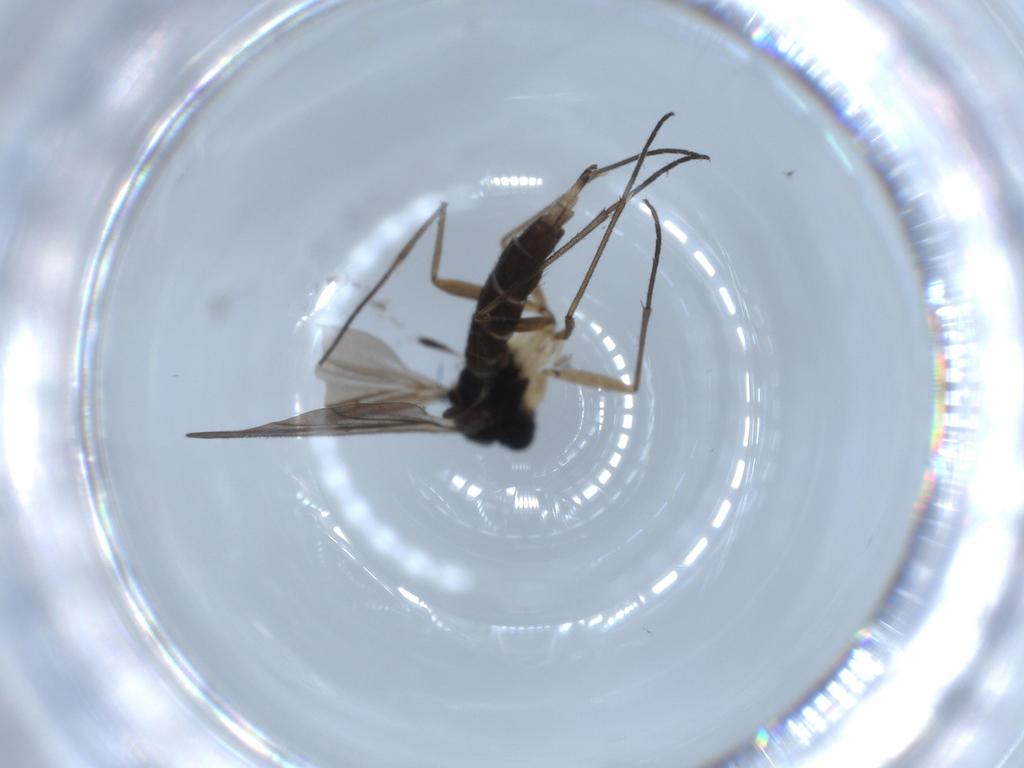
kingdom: Animalia
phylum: Arthropoda
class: Insecta
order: Diptera
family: Sciaridae
